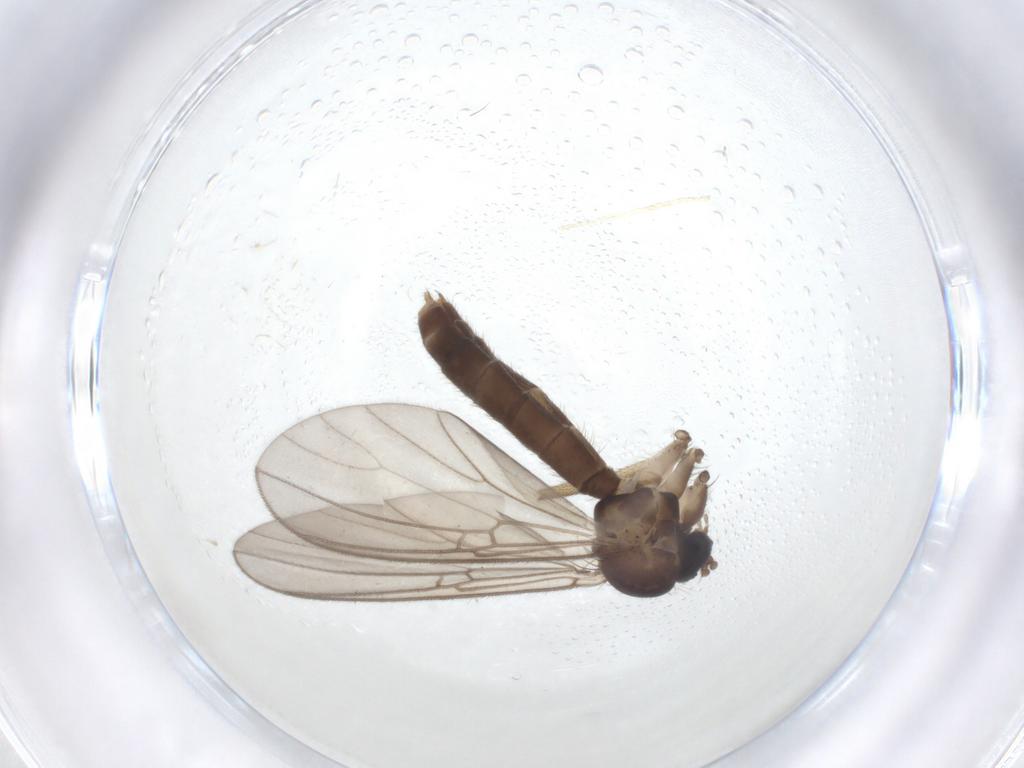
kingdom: Animalia
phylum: Arthropoda
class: Insecta
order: Diptera
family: Mycetophilidae
